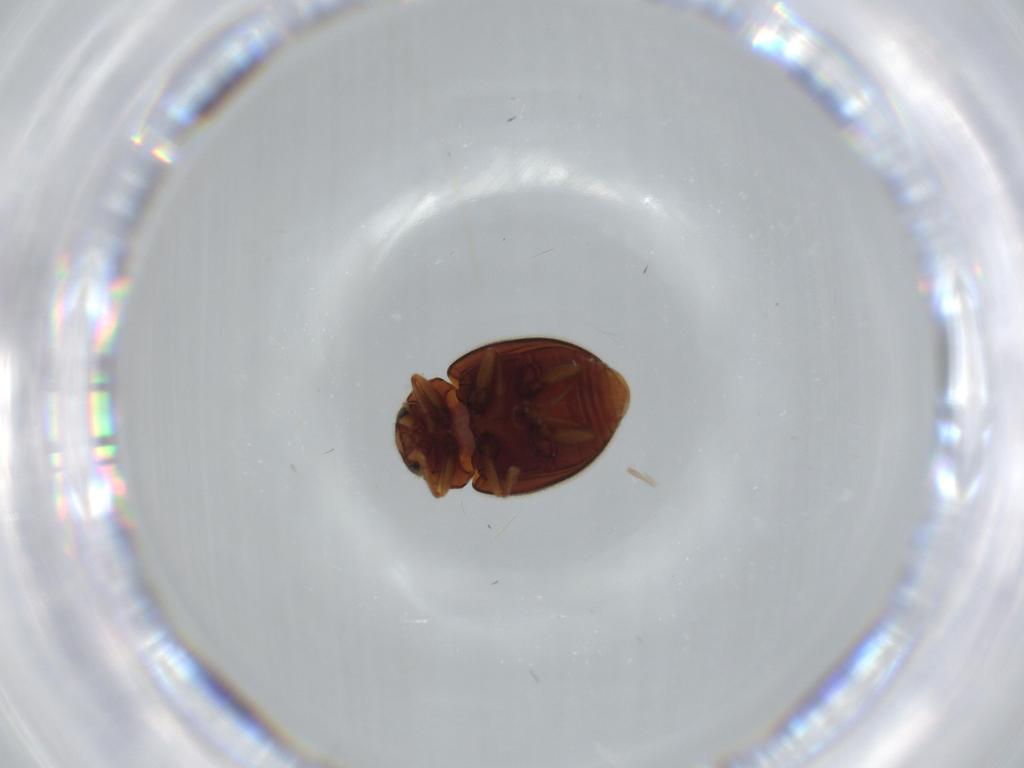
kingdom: Animalia
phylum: Arthropoda
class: Insecta
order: Coleoptera
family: Coccinellidae
